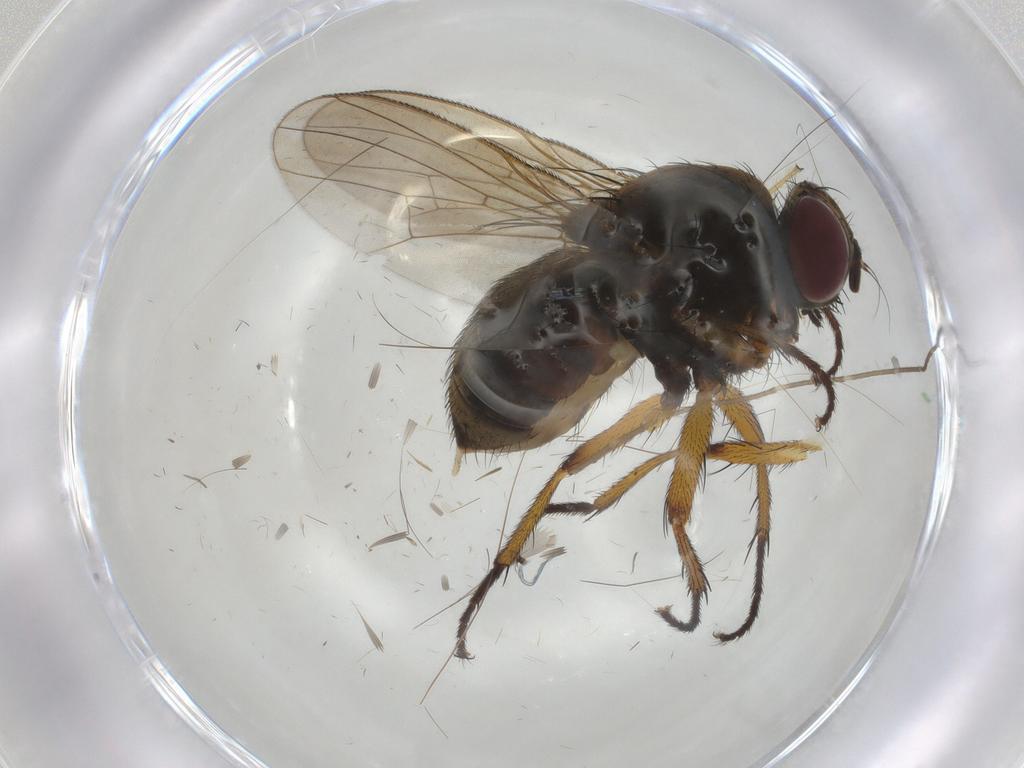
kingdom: Animalia
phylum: Arthropoda
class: Insecta
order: Diptera
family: Muscidae
